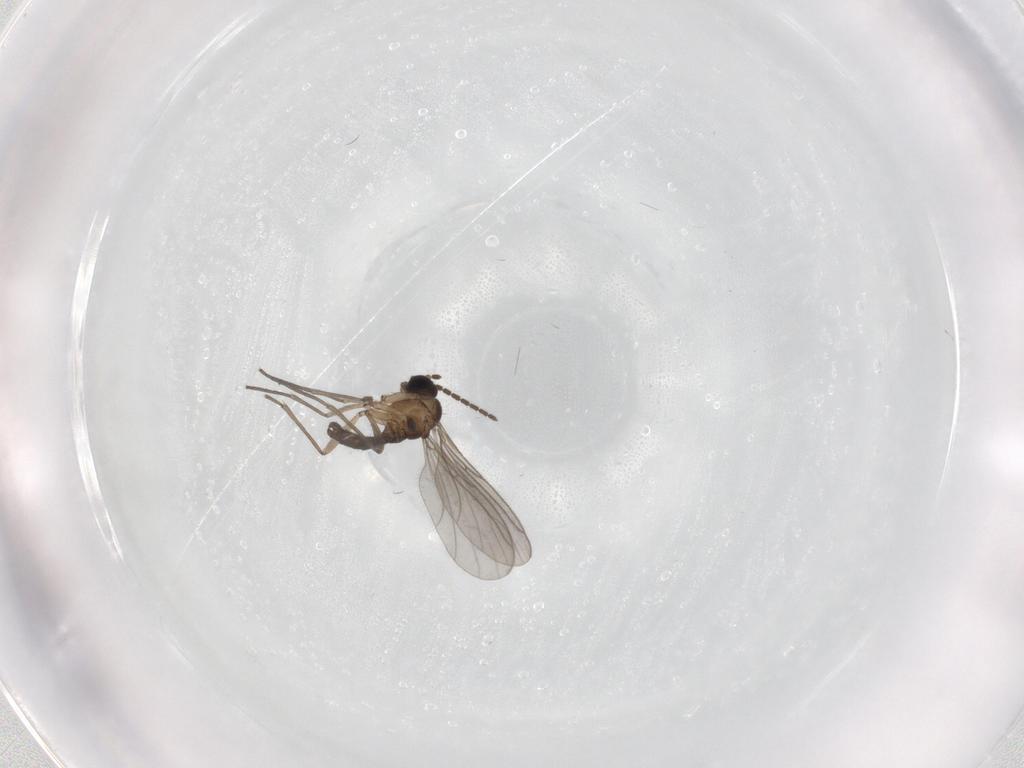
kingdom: Animalia
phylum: Arthropoda
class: Insecta
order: Diptera
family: Sciaridae
